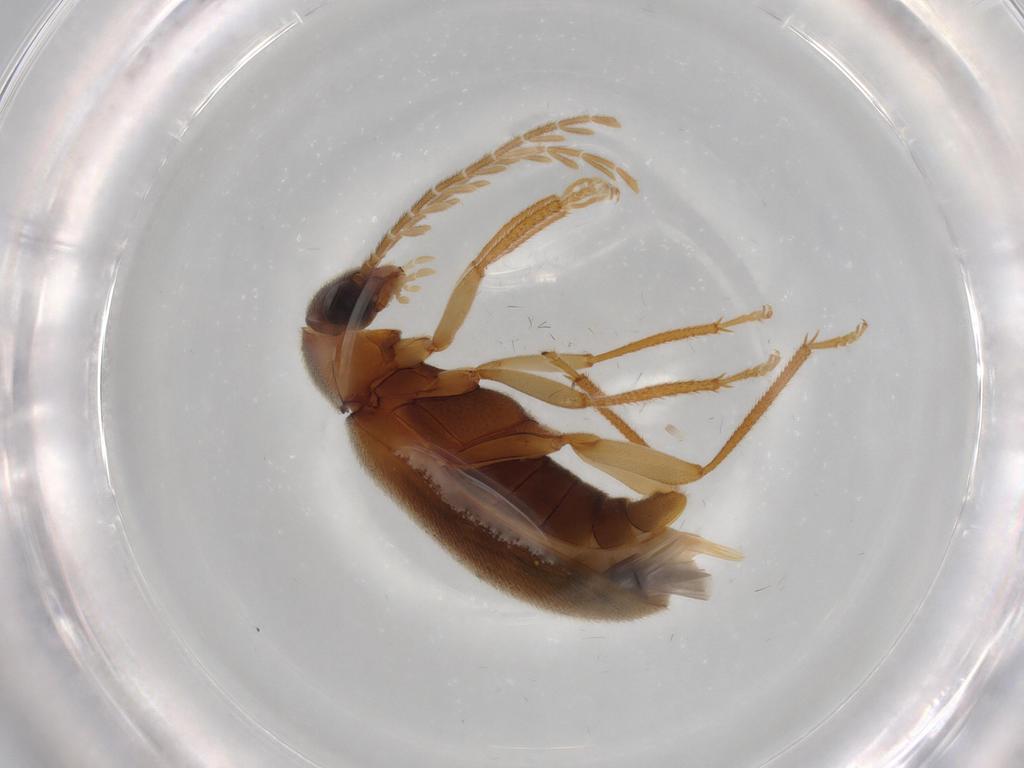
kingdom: Animalia
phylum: Arthropoda
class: Insecta
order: Coleoptera
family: Ptilodactylidae
